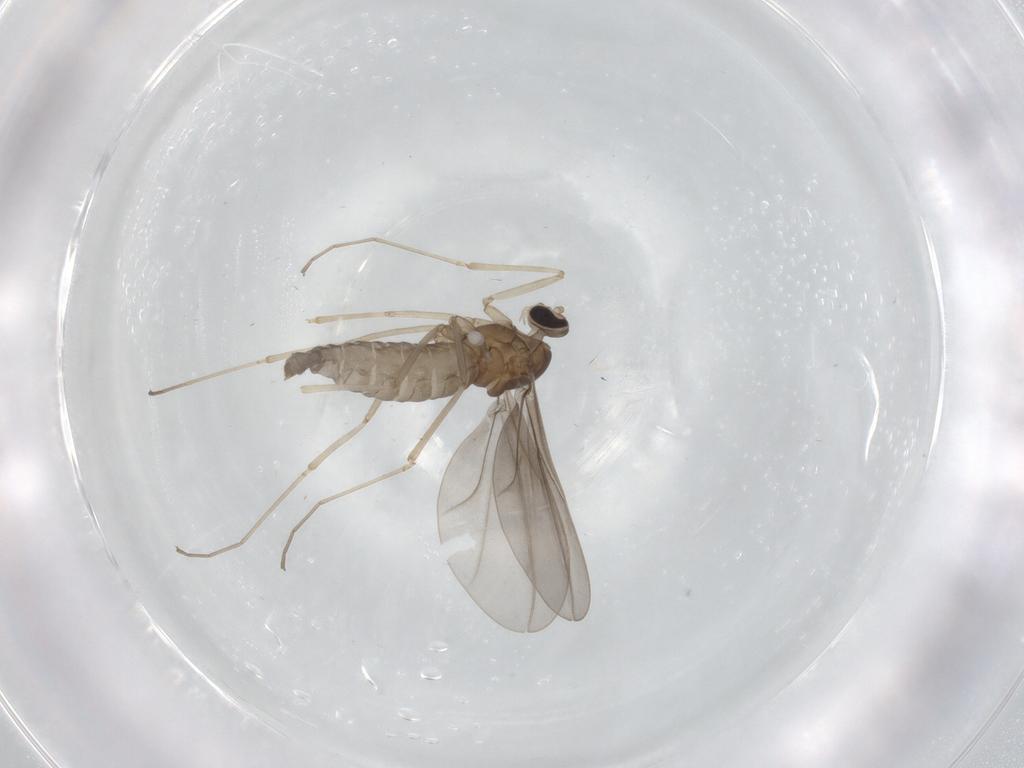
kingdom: Animalia
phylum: Arthropoda
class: Insecta
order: Diptera
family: Cecidomyiidae
